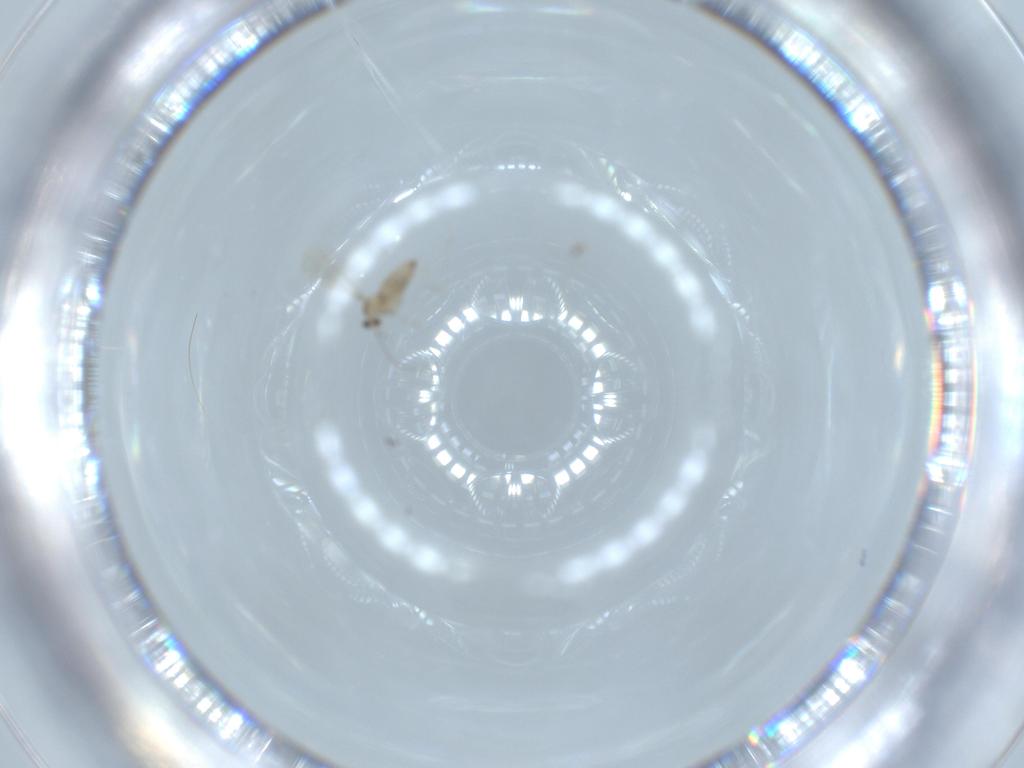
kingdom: Animalia
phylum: Arthropoda
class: Insecta
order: Diptera
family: Cecidomyiidae
